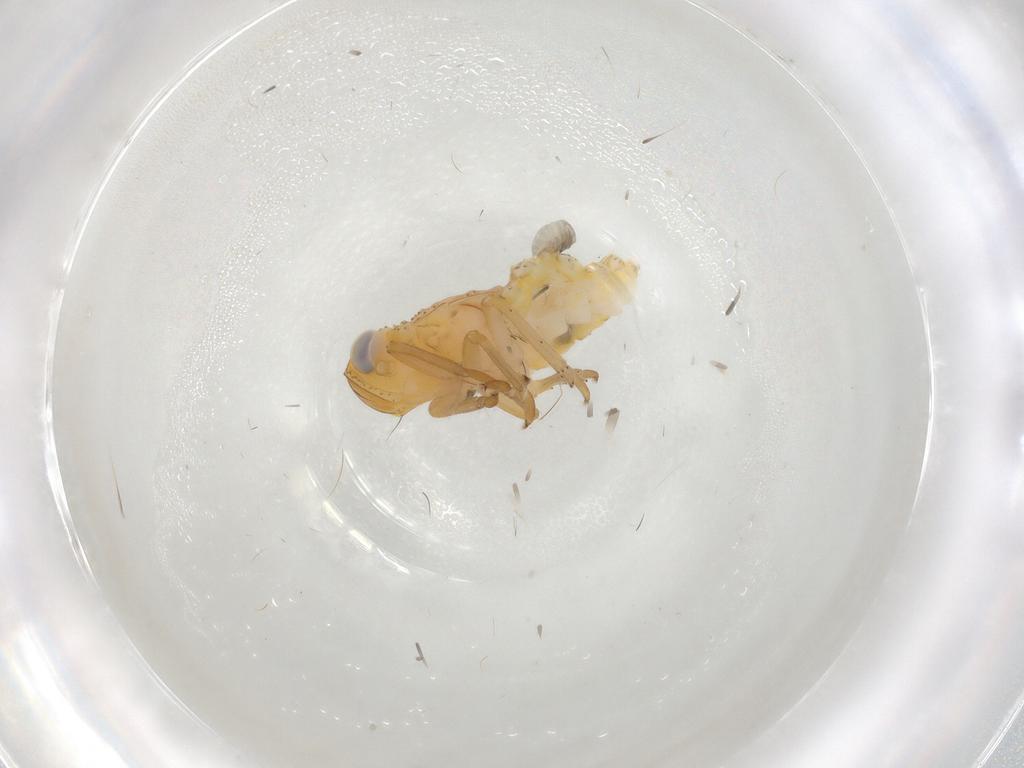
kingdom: Animalia
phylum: Arthropoda
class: Insecta
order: Hemiptera
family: Issidae
